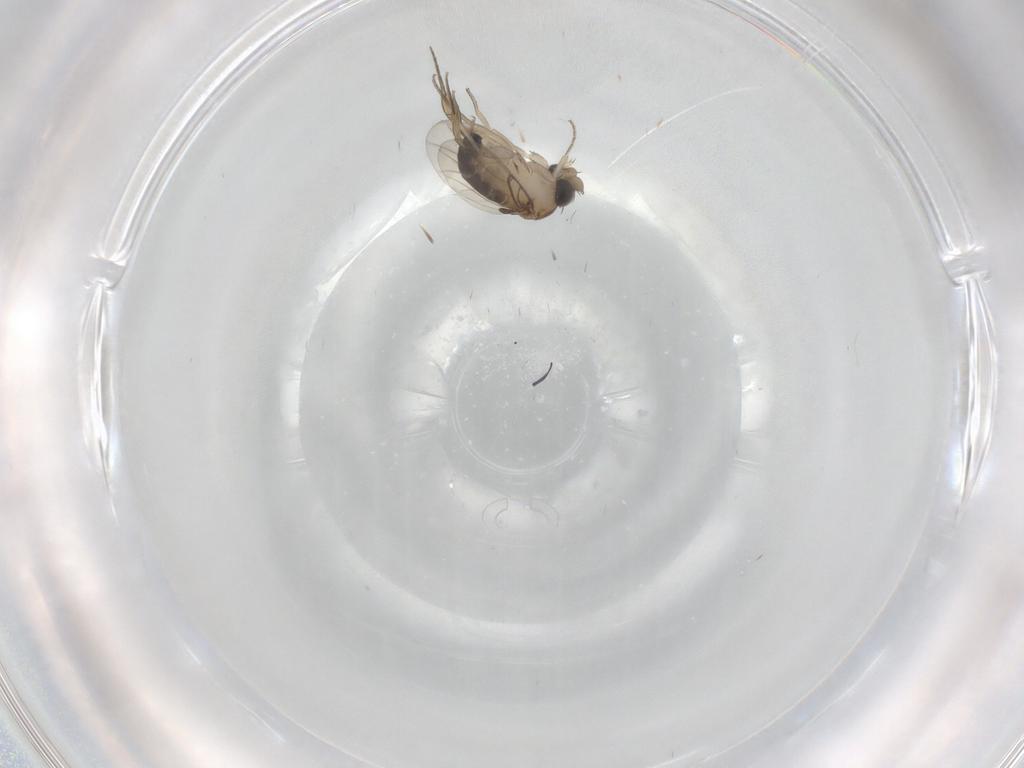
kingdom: Animalia
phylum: Arthropoda
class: Insecta
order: Diptera
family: Phoridae
